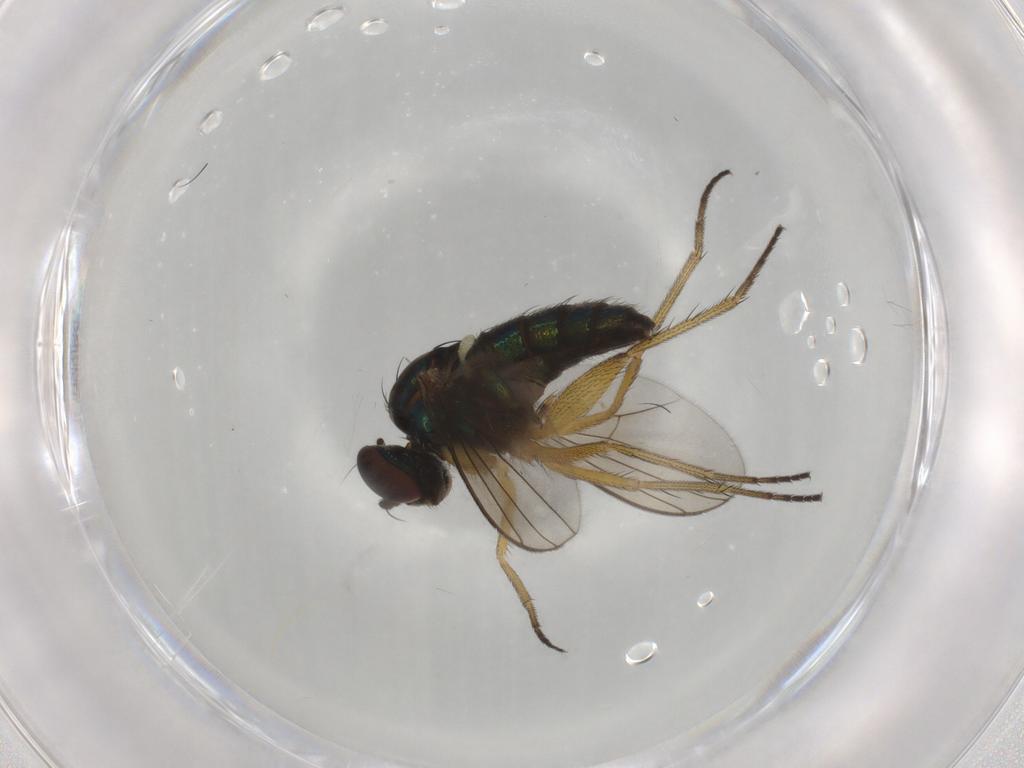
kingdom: Animalia
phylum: Arthropoda
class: Insecta
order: Diptera
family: Dolichopodidae
